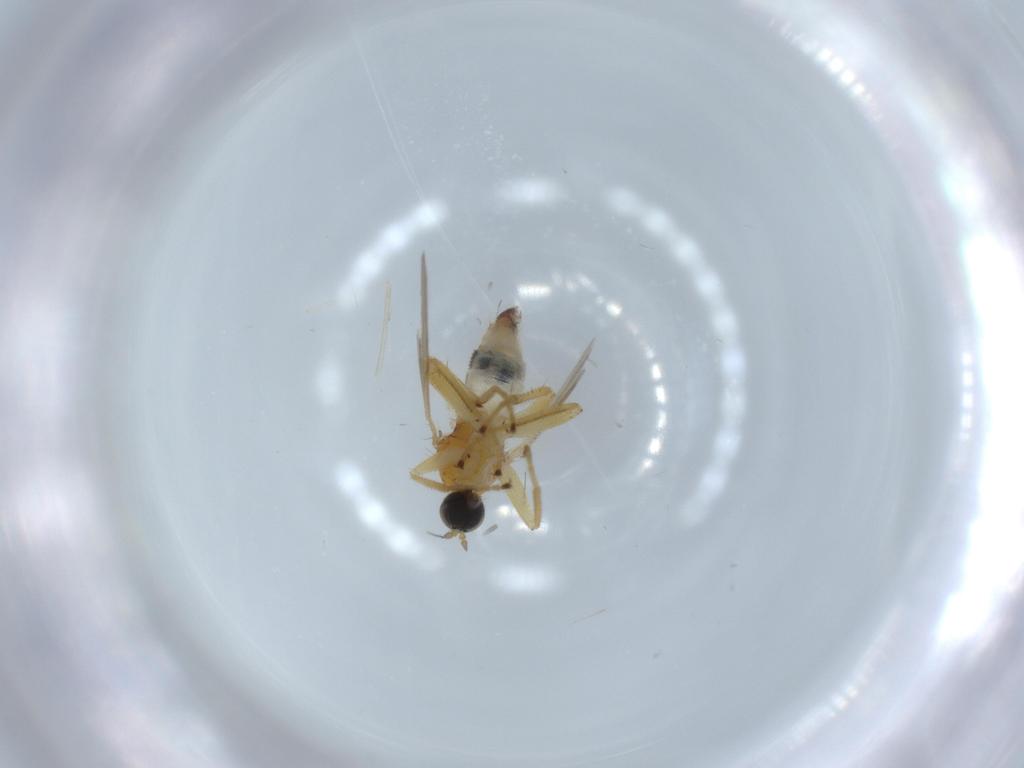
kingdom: Animalia
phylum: Arthropoda
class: Insecta
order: Diptera
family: Hybotidae
